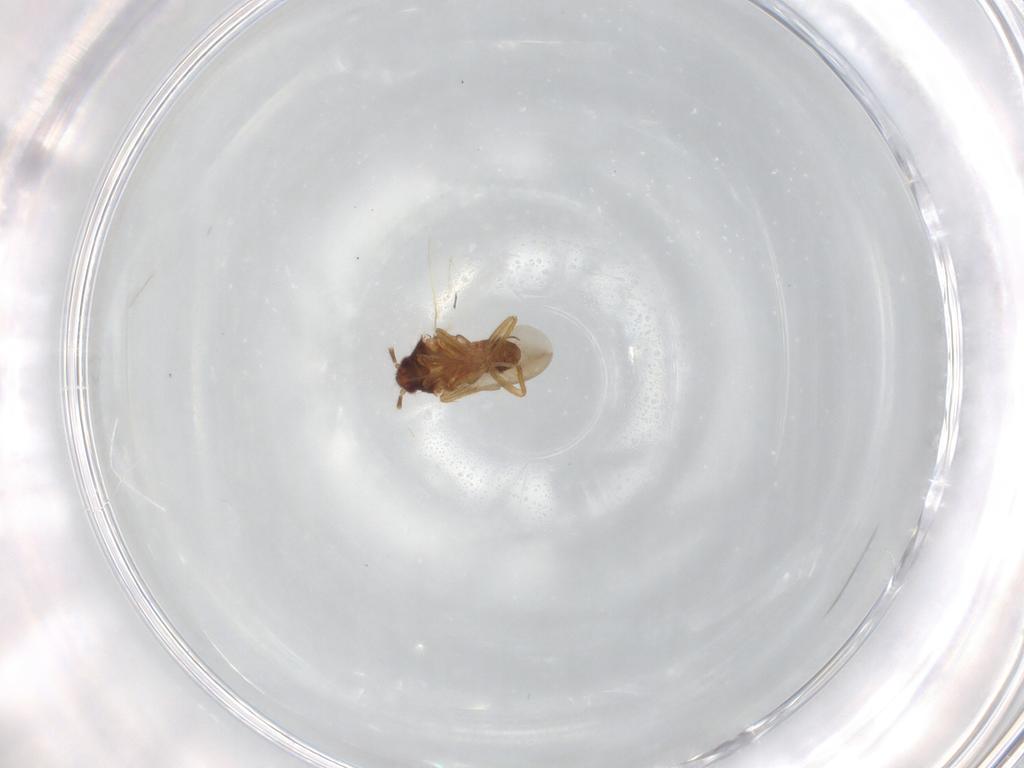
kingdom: Animalia
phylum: Arthropoda
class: Insecta
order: Hemiptera
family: Ceratocombidae
